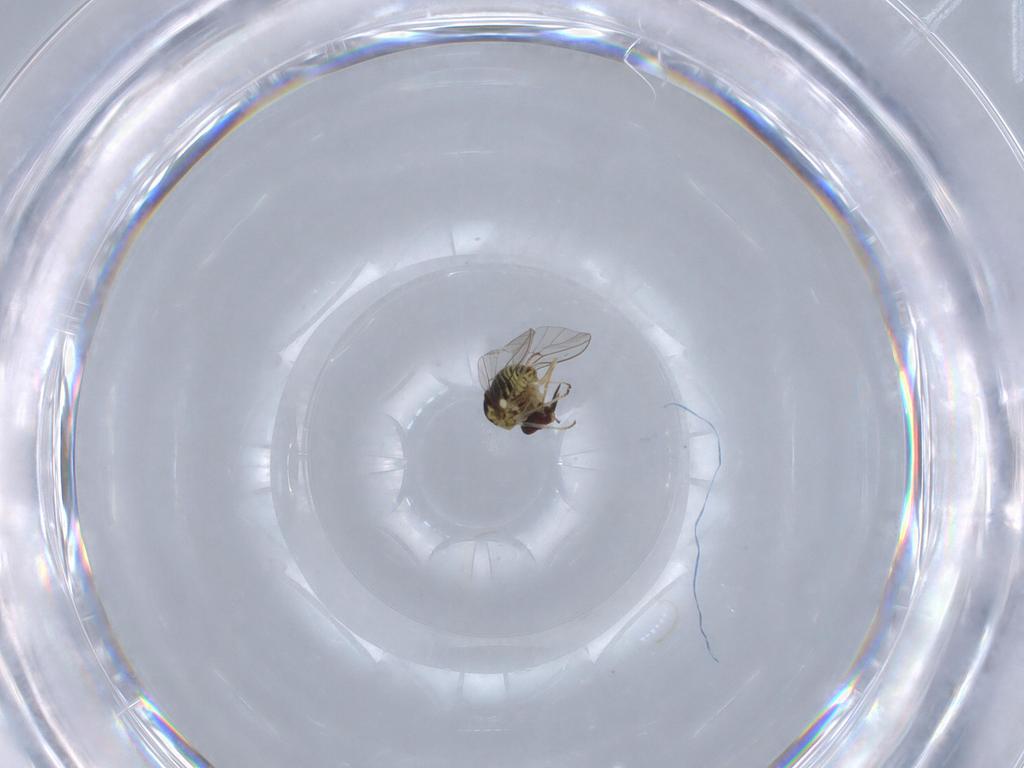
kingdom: Animalia
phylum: Arthropoda
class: Insecta
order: Diptera
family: Mythicomyiidae
